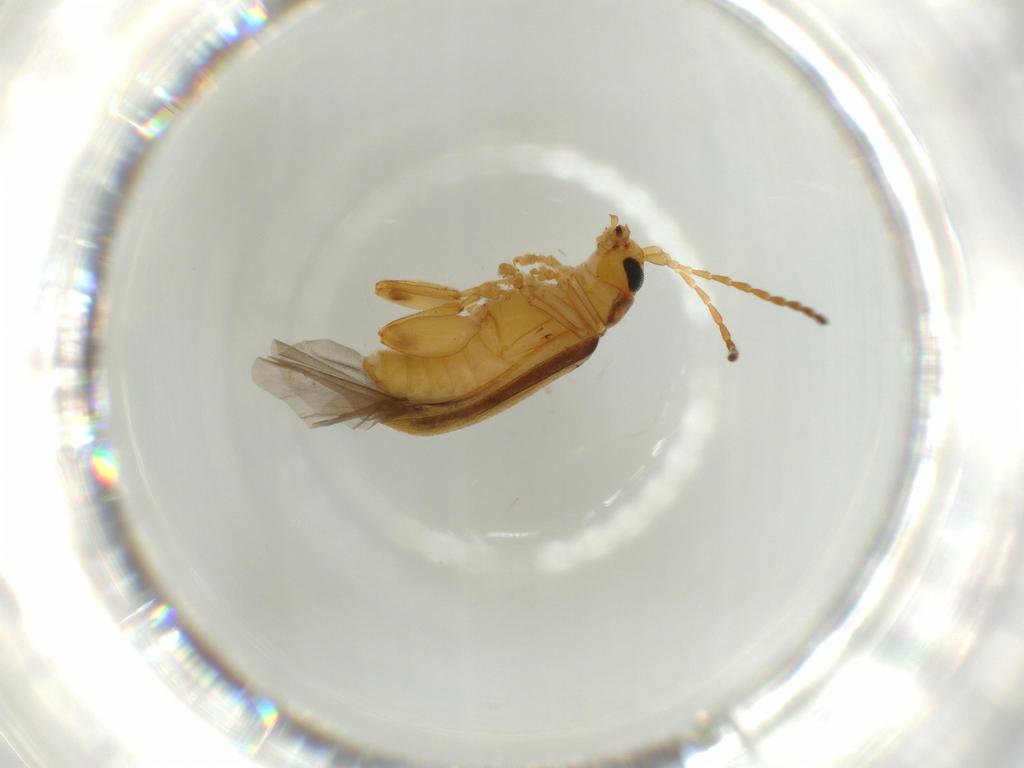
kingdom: Animalia
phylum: Arthropoda
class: Insecta
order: Coleoptera
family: Chrysomelidae
